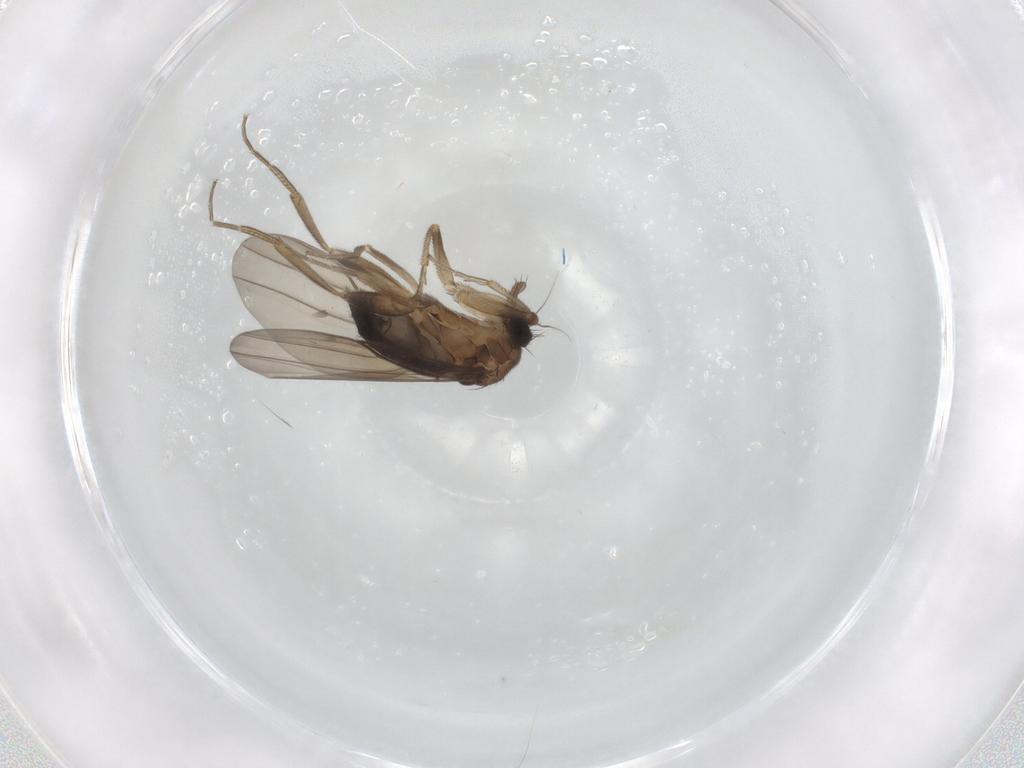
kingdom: Animalia
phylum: Arthropoda
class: Insecta
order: Diptera
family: Phoridae
